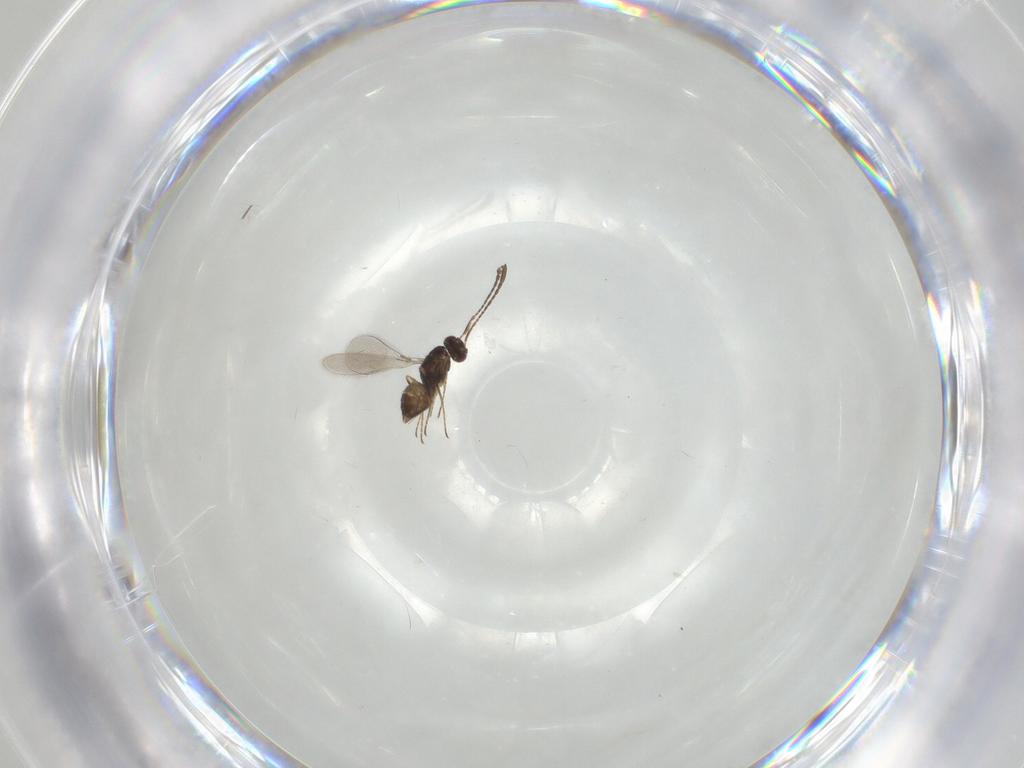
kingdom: Animalia
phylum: Arthropoda
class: Insecta
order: Hymenoptera
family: Mymaridae
